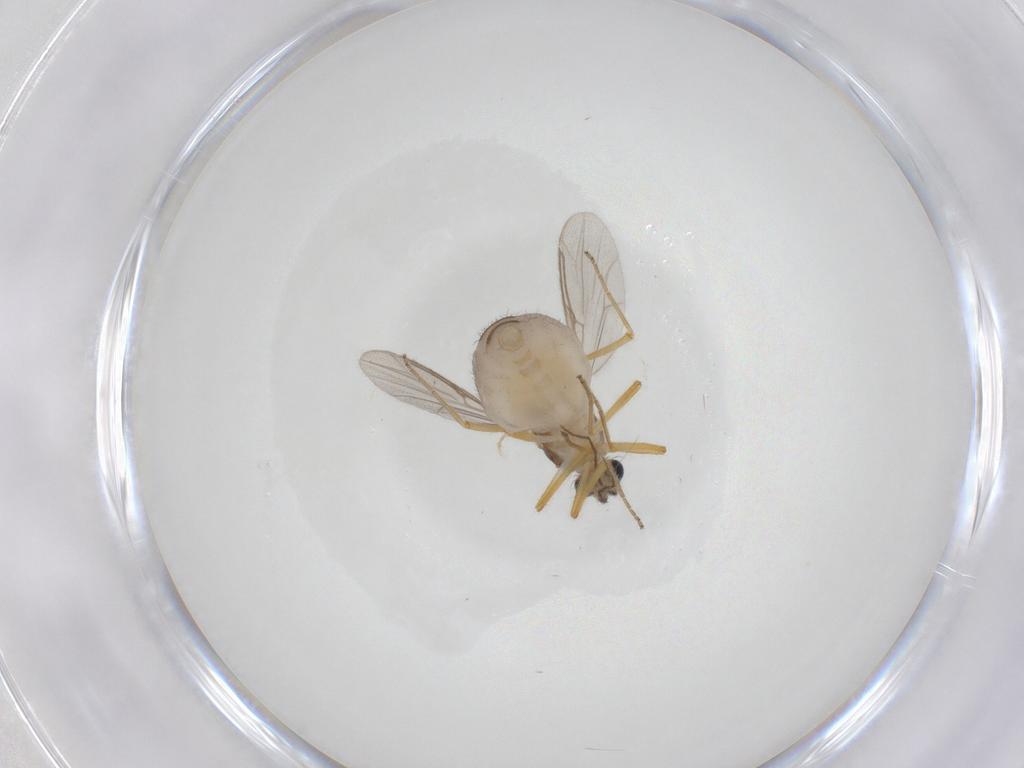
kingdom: Animalia
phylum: Arthropoda
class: Insecta
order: Diptera
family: Ceratopogonidae
